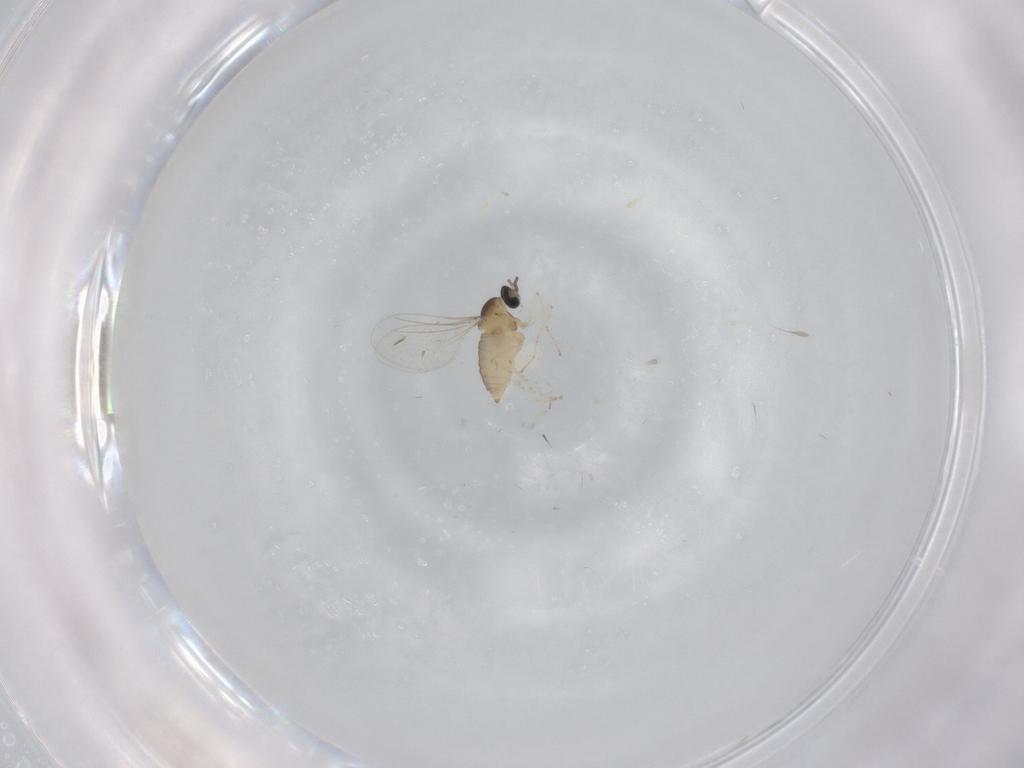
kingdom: Animalia
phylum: Arthropoda
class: Insecta
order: Diptera
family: Cecidomyiidae
